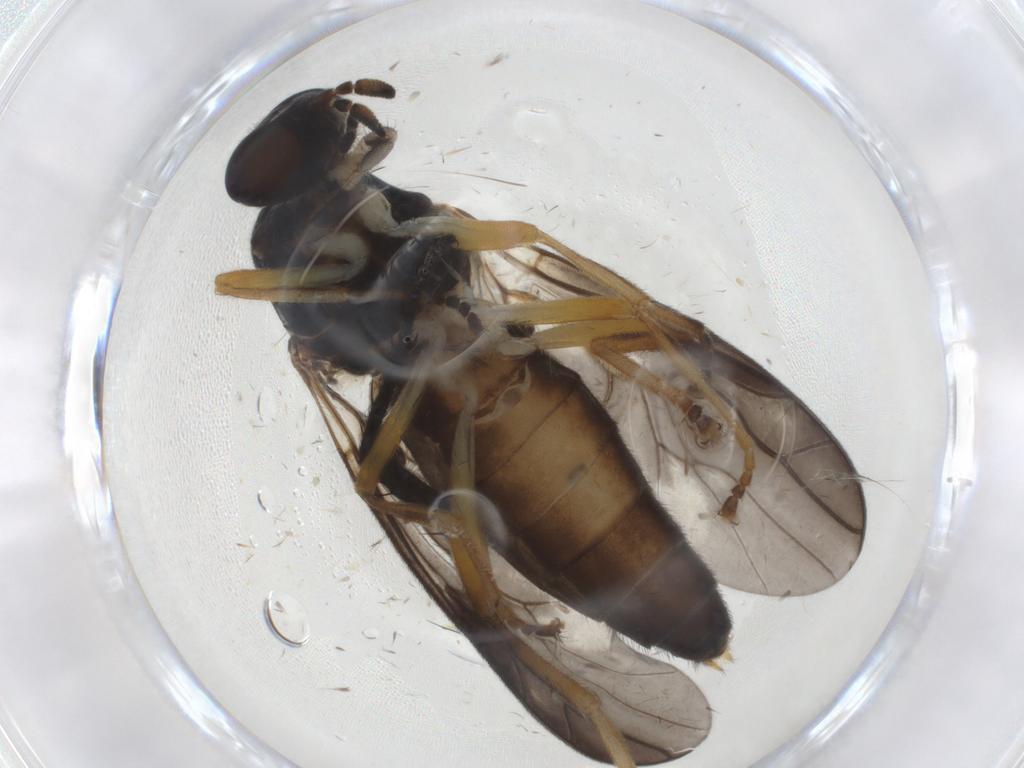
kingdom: Animalia
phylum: Arthropoda
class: Insecta
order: Diptera
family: Stratiomyidae
